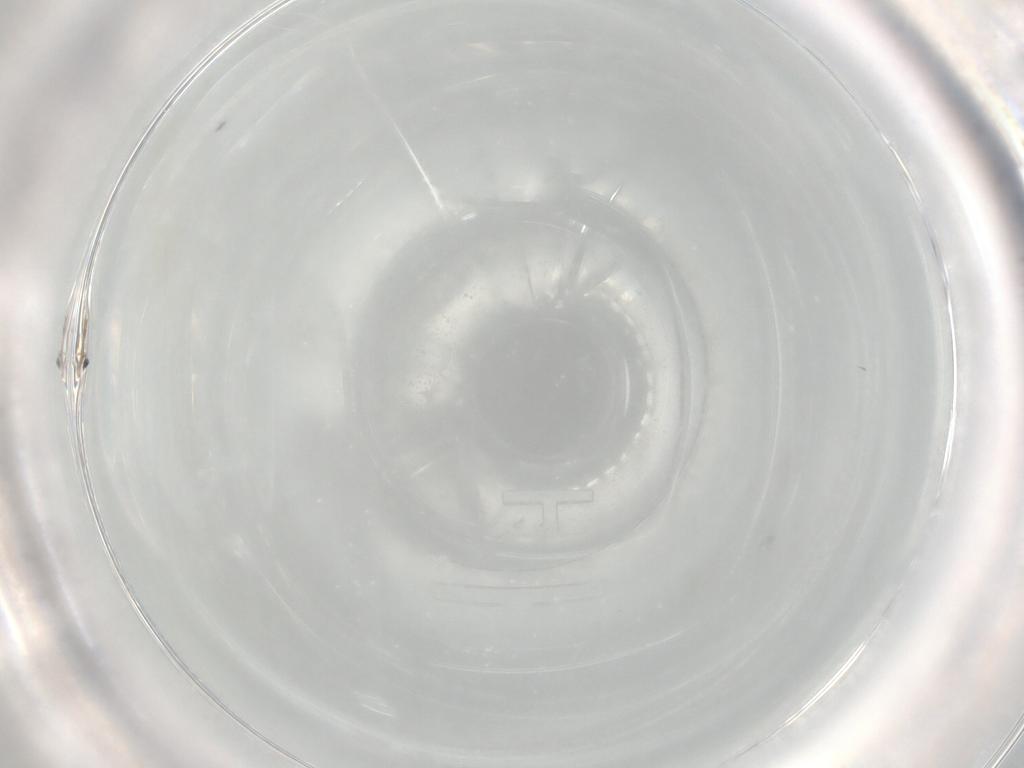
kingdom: Animalia
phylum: Arthropoda
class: Insecta
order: Diptera
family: Cecidomyiidae
